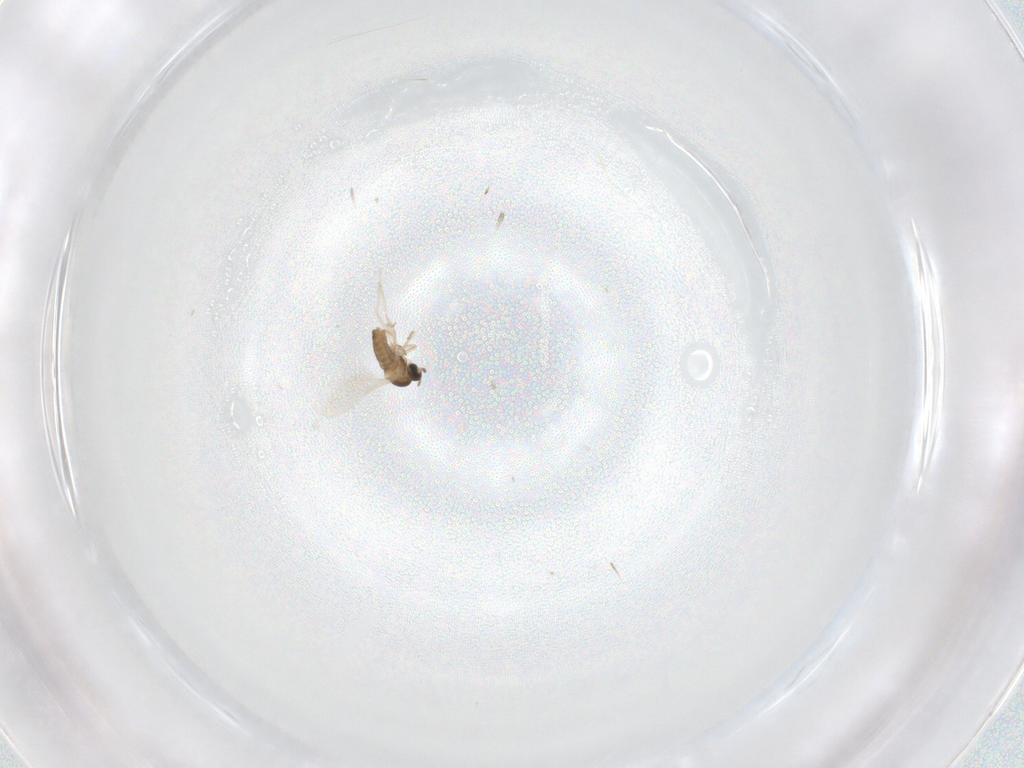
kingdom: Animalia
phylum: Arthropoda
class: Insecta
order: Diptera
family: Cecidomyiidae
